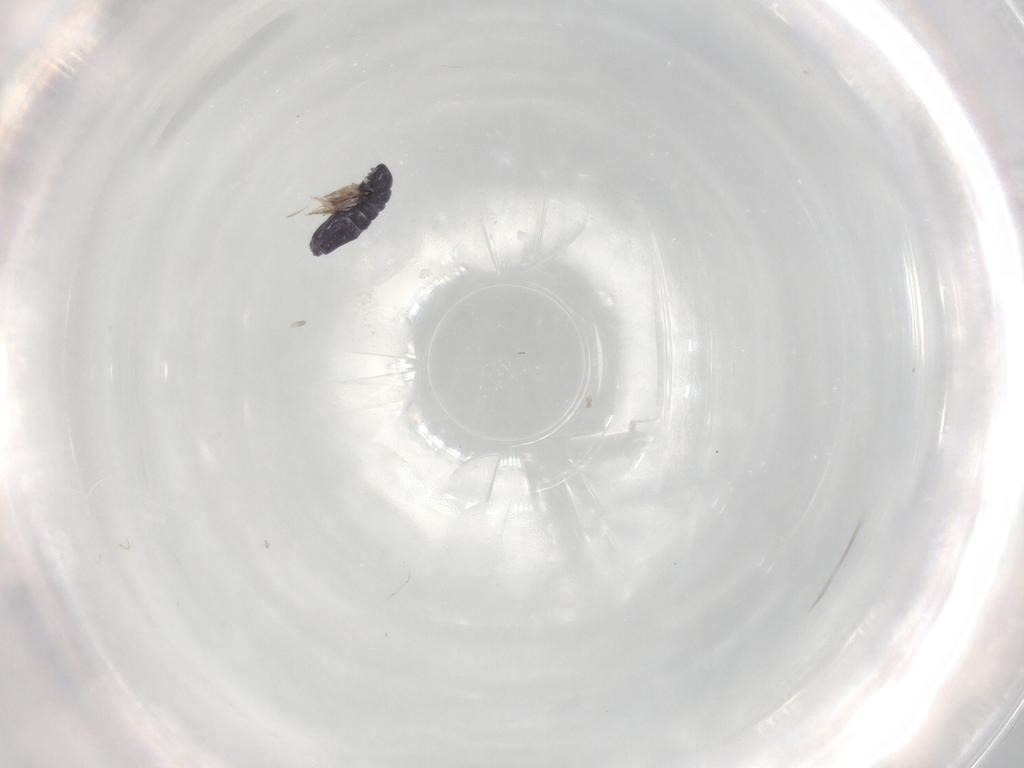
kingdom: Animalia
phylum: Arthropoda
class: Collembola
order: Entomobryomorpha
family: Entomobryidae
